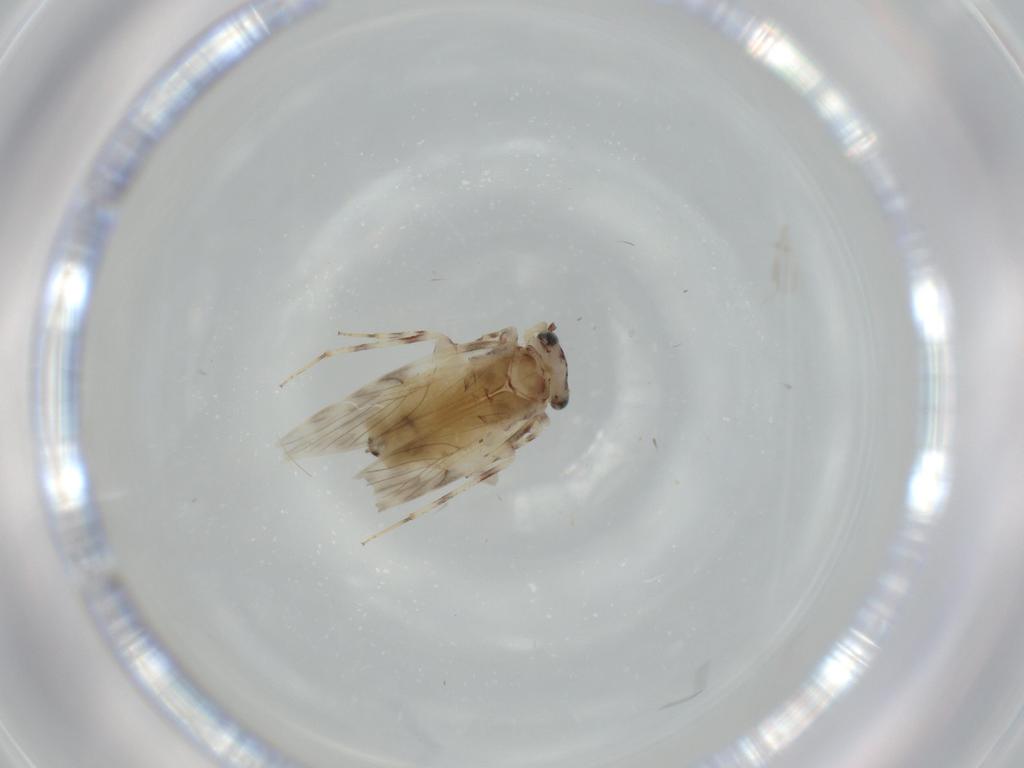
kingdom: Animalia
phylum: Arthropoda
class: Insecta
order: Psocodea
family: Lepidopsocidae
